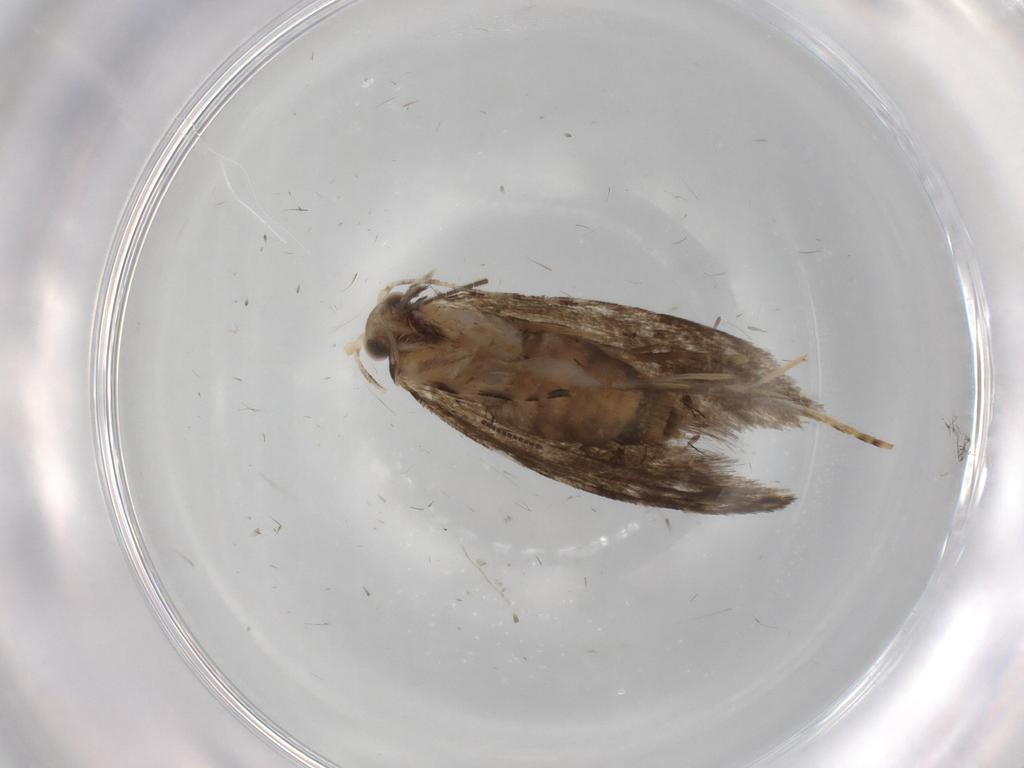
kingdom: Animalia
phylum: Arthropoda
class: Insecta
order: Lepidoptera
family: Tineidae
